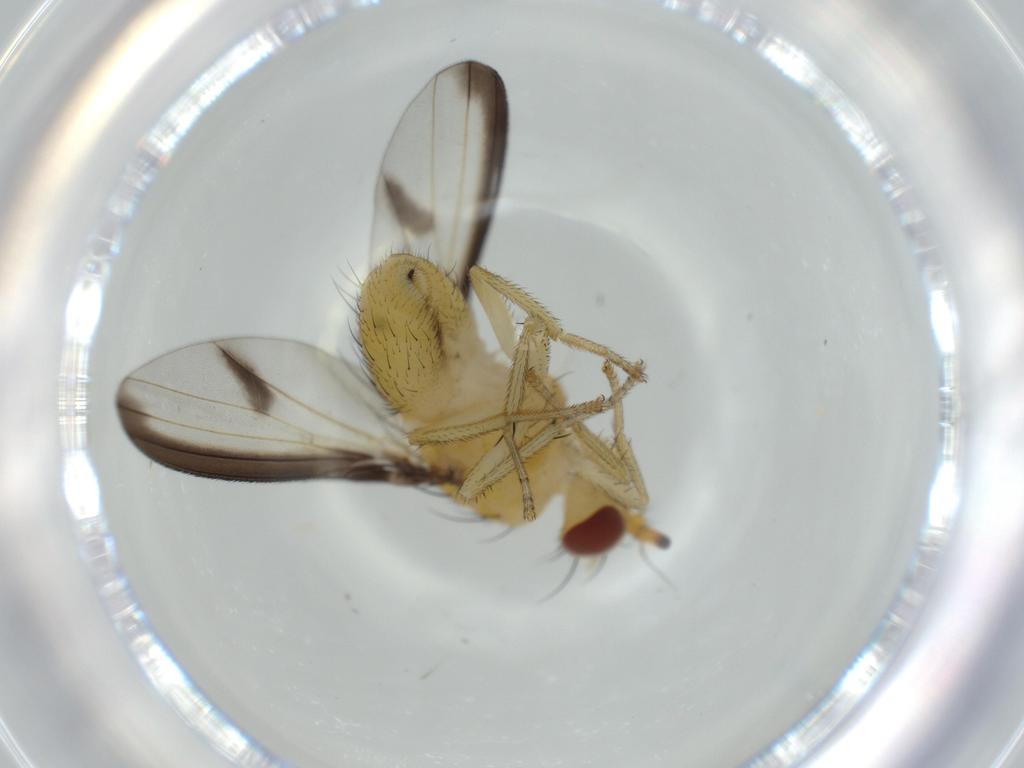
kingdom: Animalia
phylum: Arthropoda
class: Insecta
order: Diptera
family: Lauxaniidae
